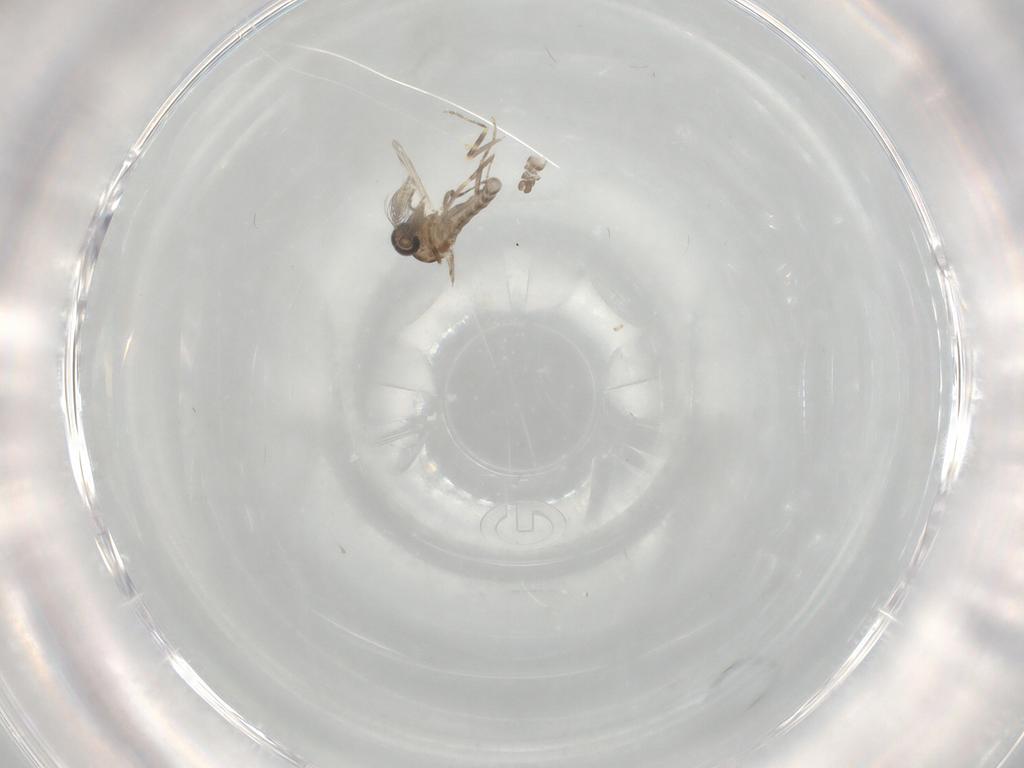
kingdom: Animalia
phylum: Arthropoda
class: Insecta
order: Diptera
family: Ceratopogonidae
